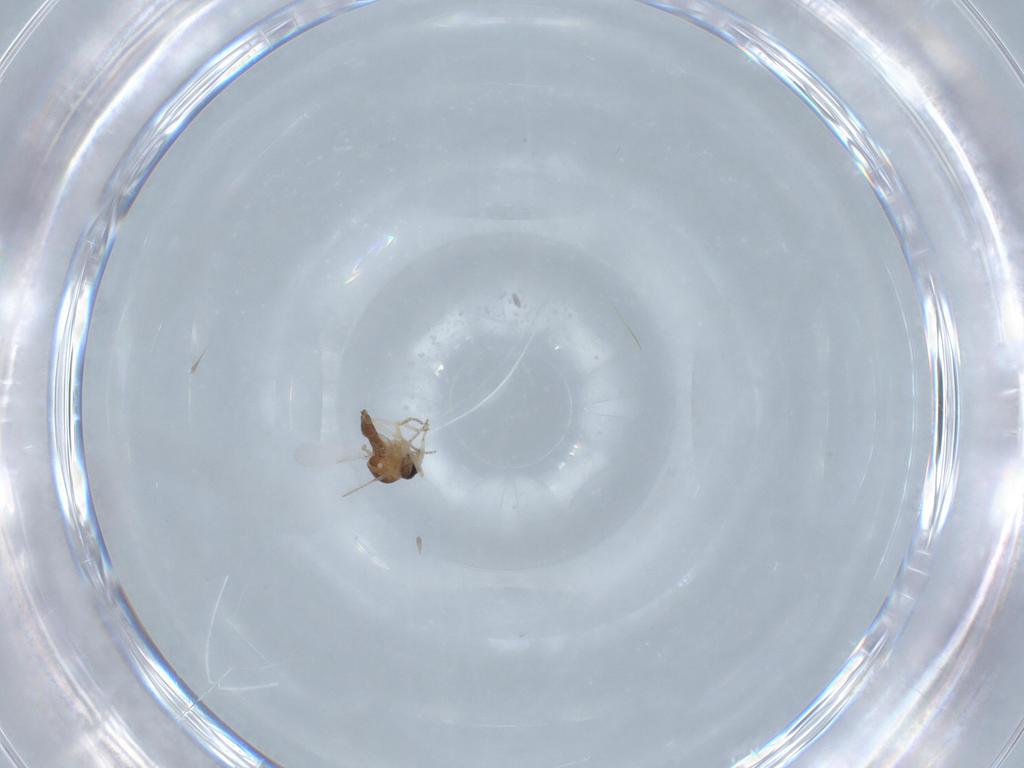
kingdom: Animalia
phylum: Arthropoda
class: Insecta
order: Diptera
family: Ceratopogonidae
